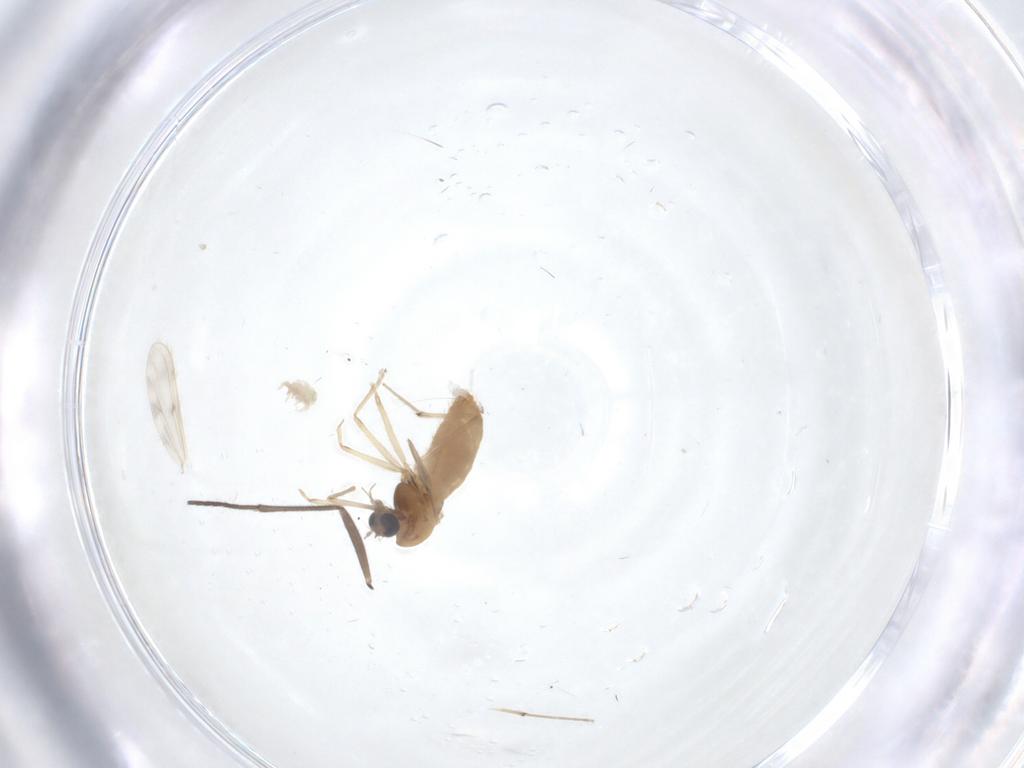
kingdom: Animalia
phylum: Arthropoda
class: Insecta
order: Diptera
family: Sciaridae
